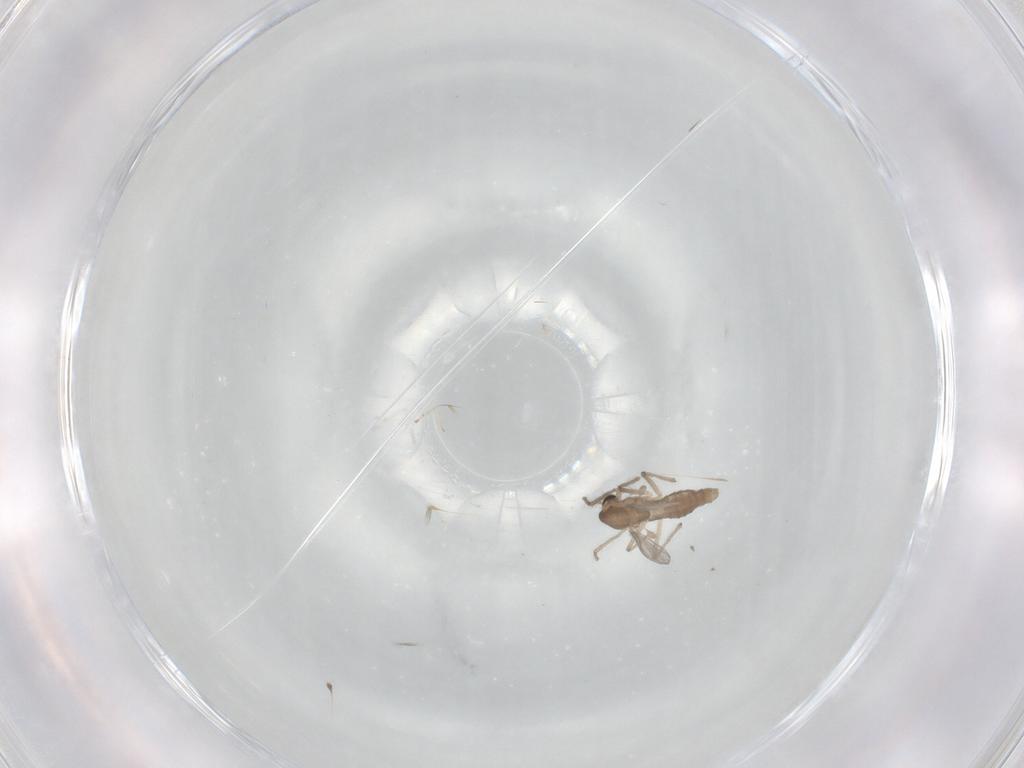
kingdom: Animalia
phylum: Arthropoda
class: Insecta
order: Diptera
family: Chironomidae
